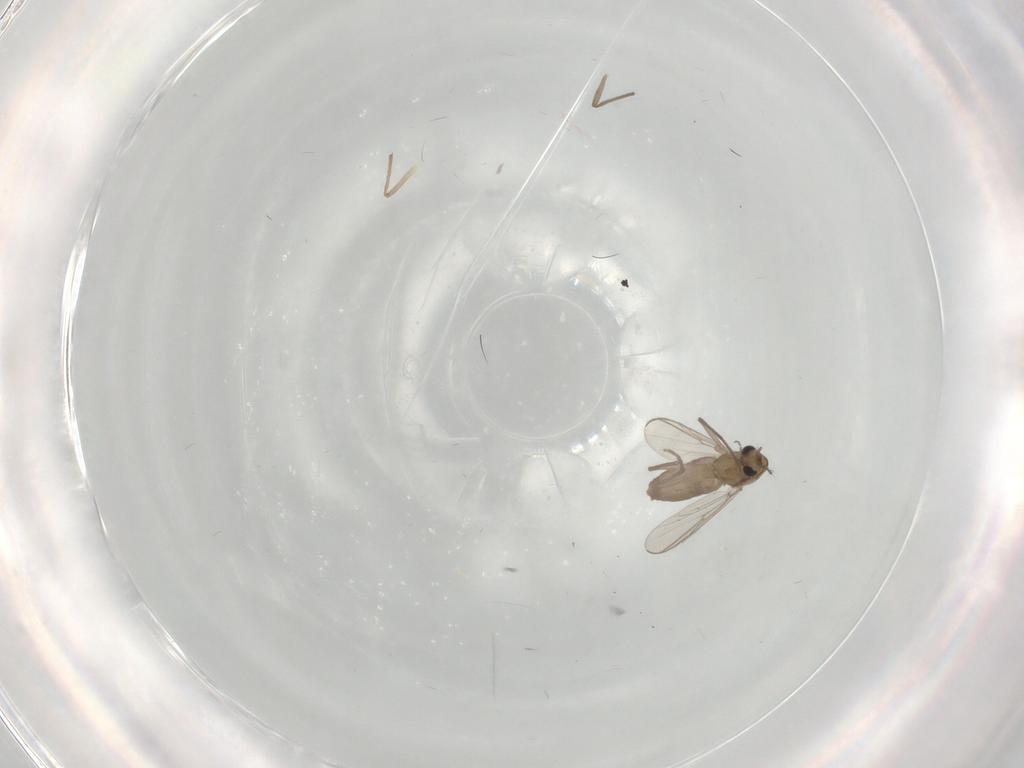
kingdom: Animalia
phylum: Arthropoda
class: Insecta
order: Diptera
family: Chironomidae
